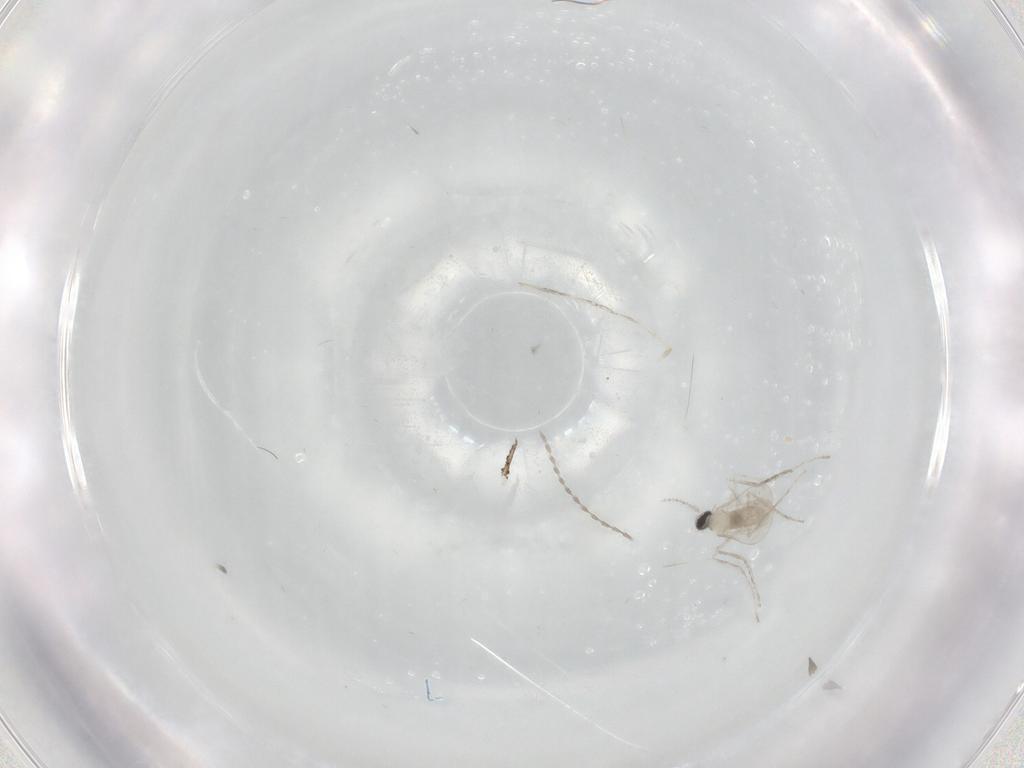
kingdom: Animalia
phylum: Arthropoda
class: Insecta
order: Diptera
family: Cecidomyiidae
